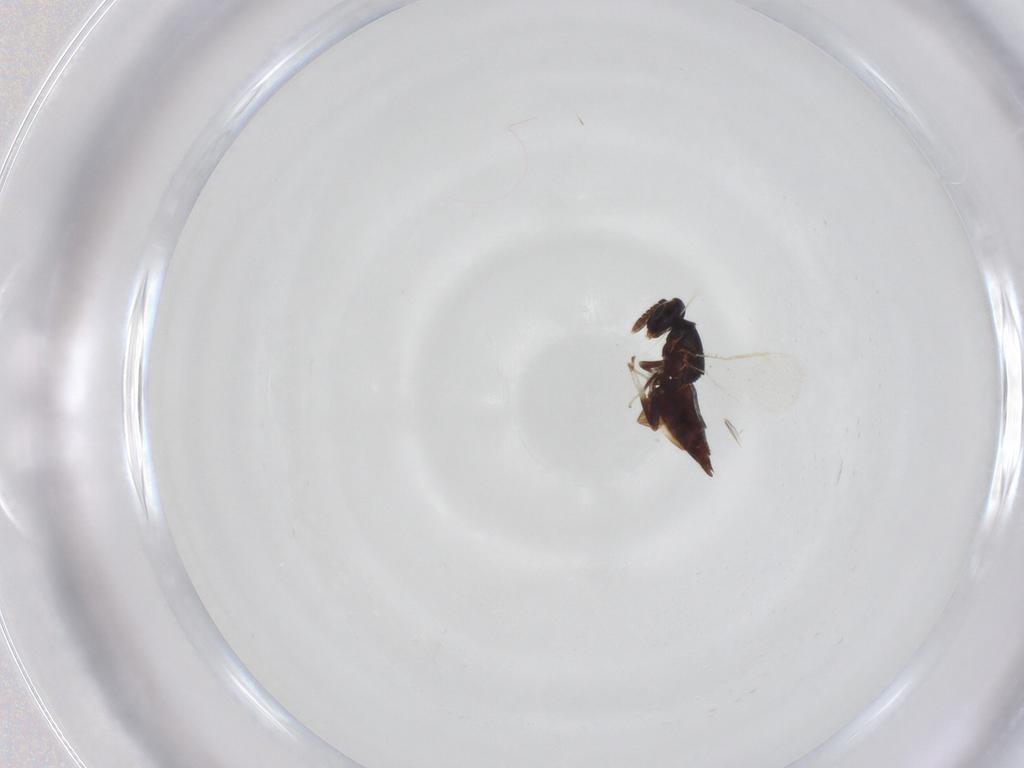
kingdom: Animalia
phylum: Arthropoda
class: Insecta
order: Hymenoptera
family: Trichogrammatidae
